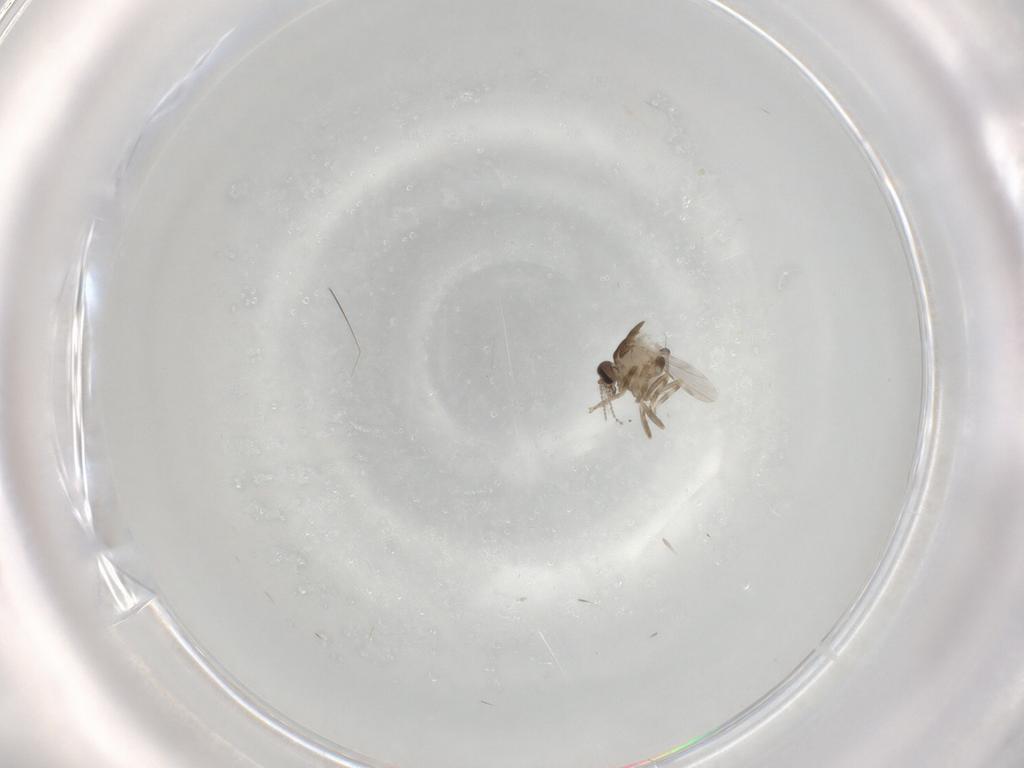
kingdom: Animalia
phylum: Arthropoda
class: Insecta
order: Diptera
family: Ceratopogonidae
